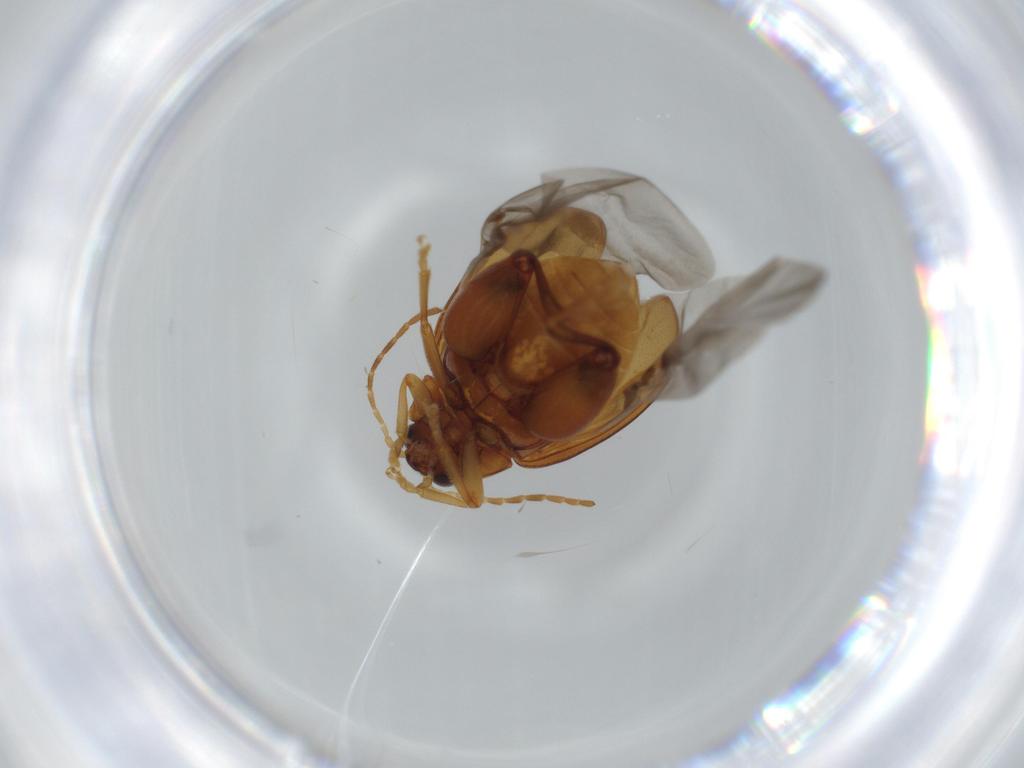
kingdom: Animalia
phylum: Arthropoda
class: Insecta
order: Coleoptera
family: Chrysomelidae
